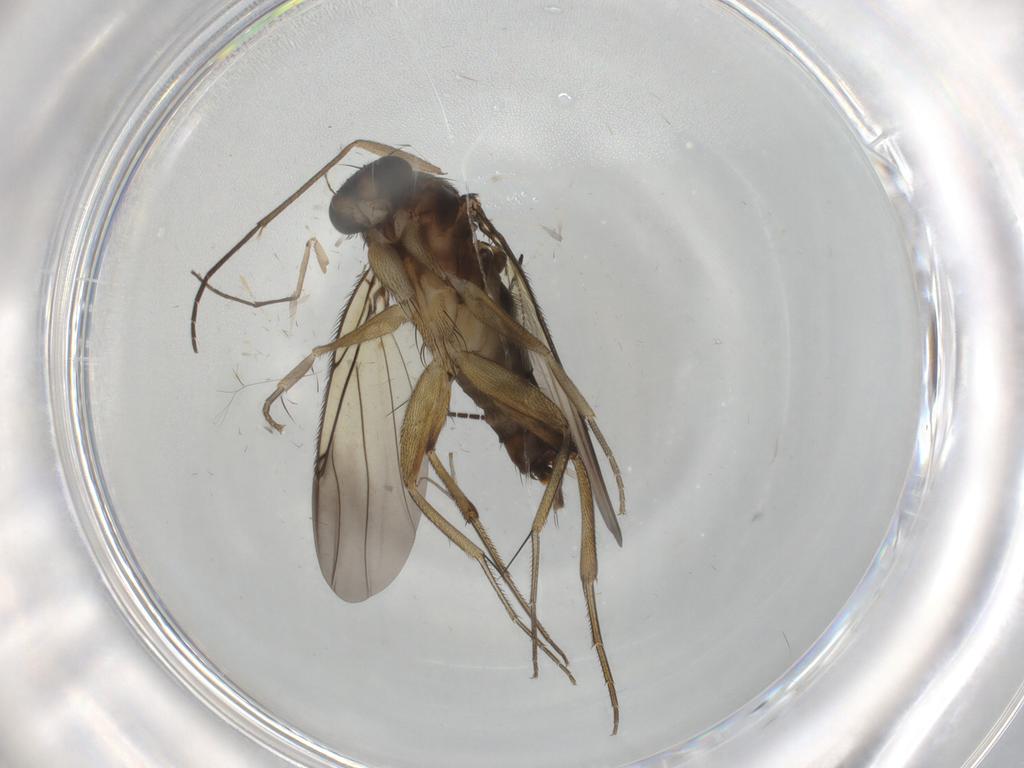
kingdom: Animalia
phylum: Arthropoda
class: Insecta
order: Diptera
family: Phoridae
